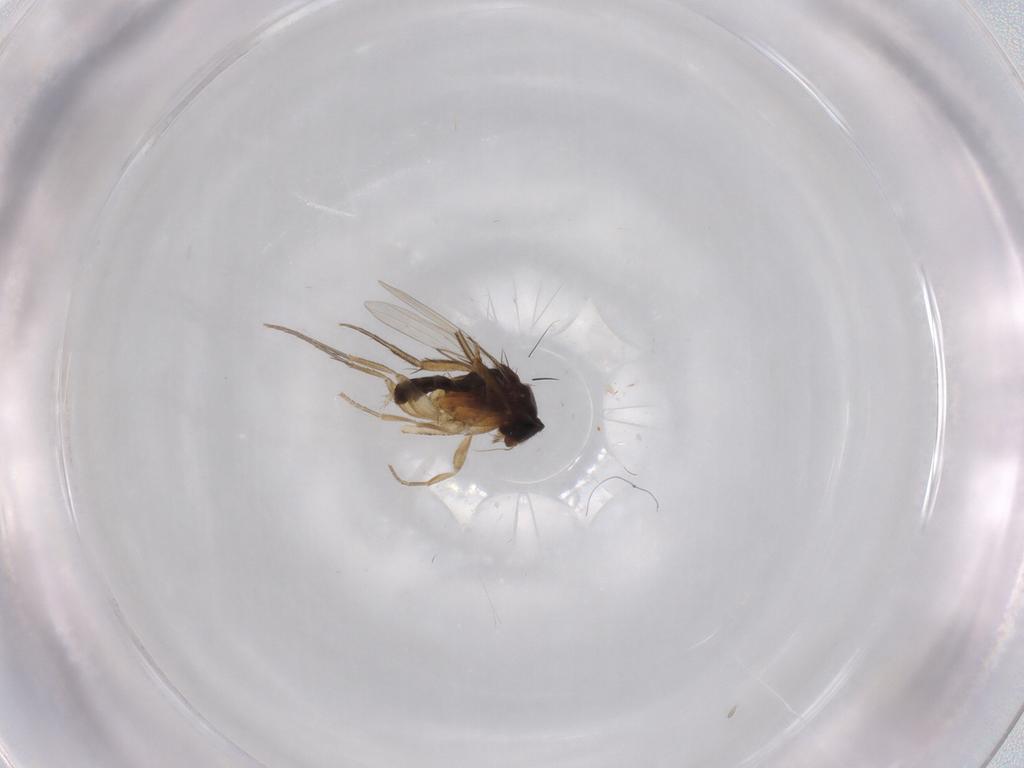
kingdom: Animalia
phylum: Arthropoda
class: Insecta
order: Diptera
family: Phoridae
